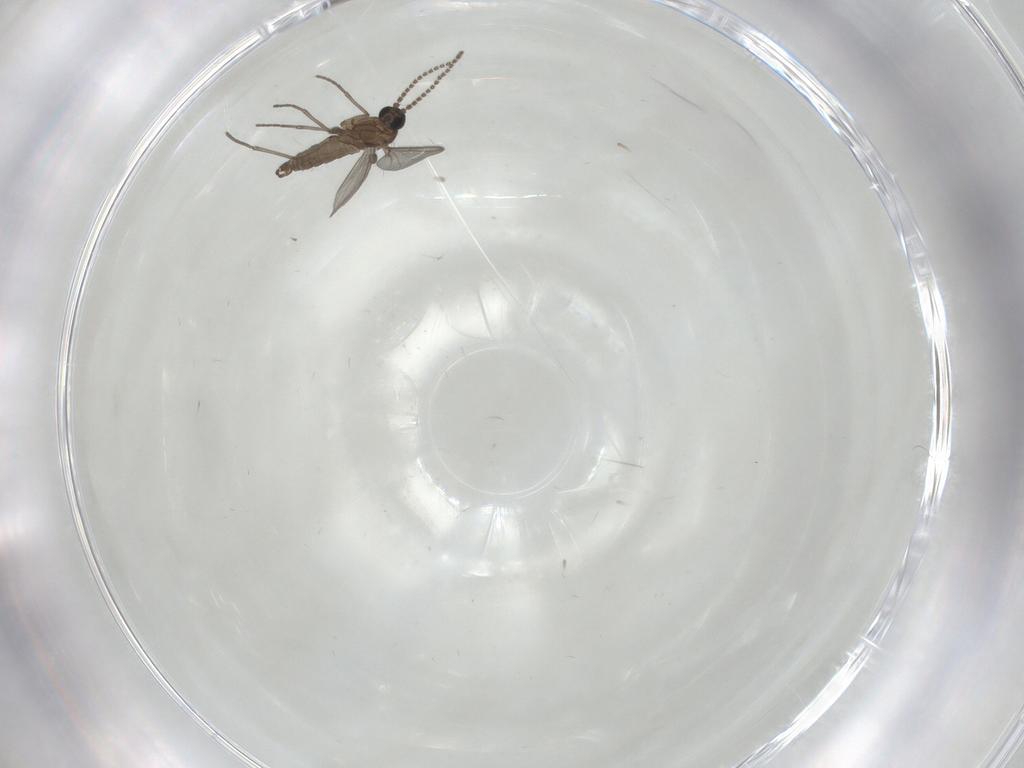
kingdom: Animalia
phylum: Arthropoda
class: Insecta
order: Diptera
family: Sciaridae
